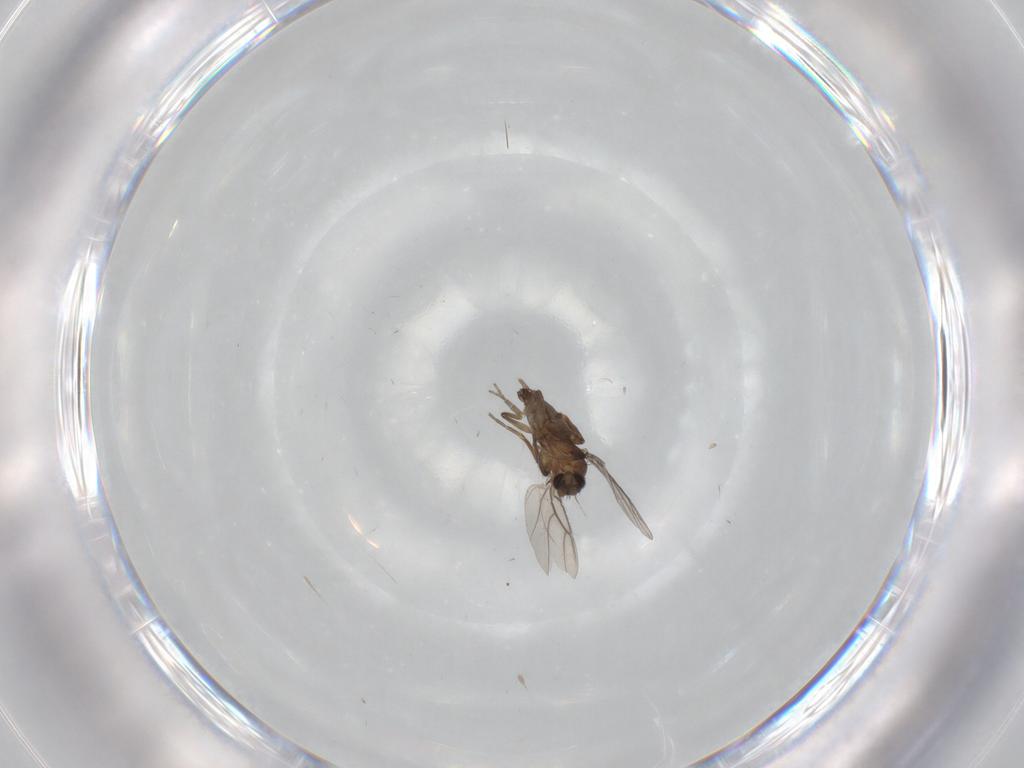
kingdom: Animalia
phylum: Arthropoda
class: Insecta
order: Diptera
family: Phoridae
